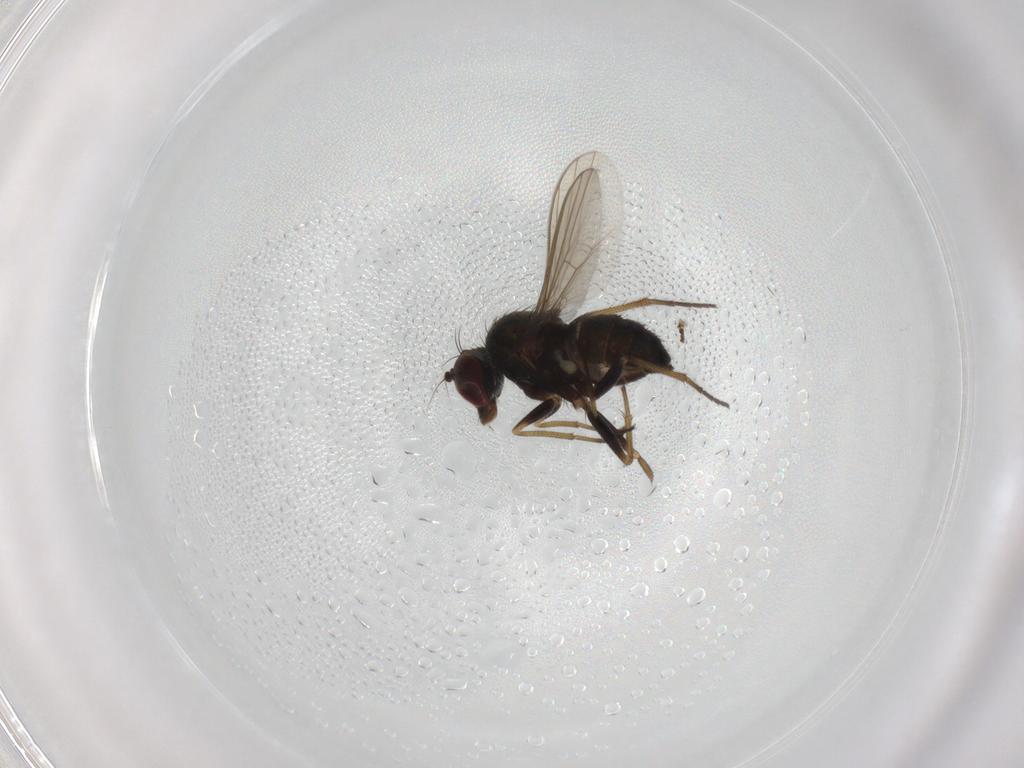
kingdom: Animalia
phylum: Arthropoda
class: Insecta
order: Diptera
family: Dolichopodidae
